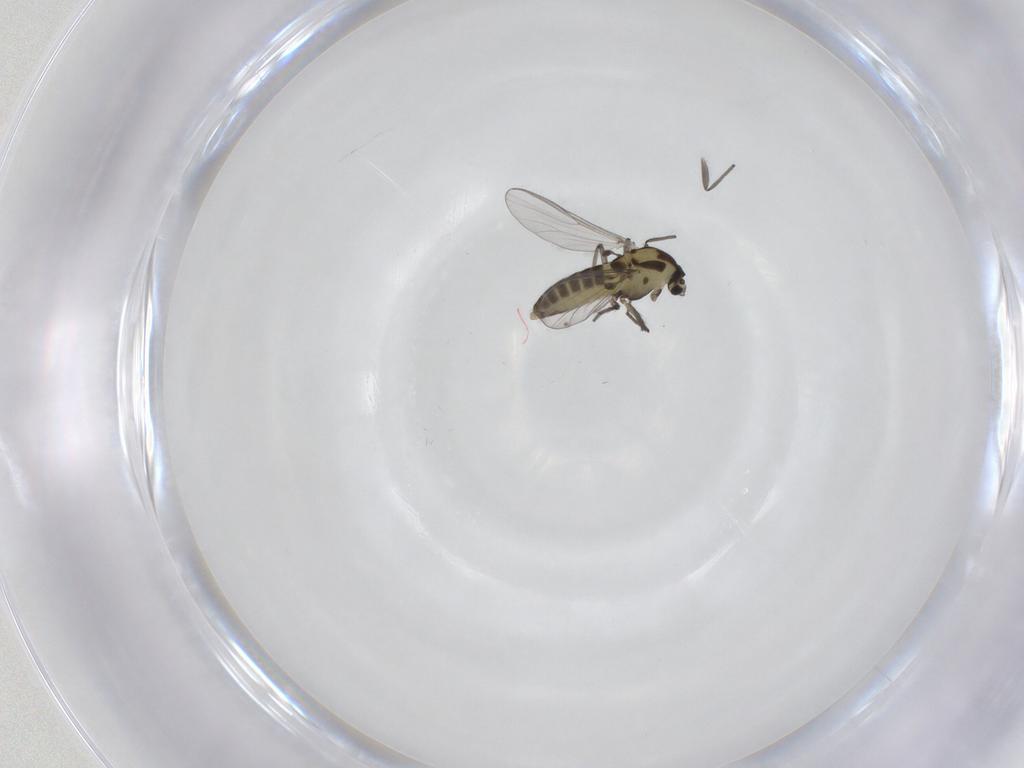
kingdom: Animalia
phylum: Arthropoda
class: Insecta
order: Diptera
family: Chironomidae
